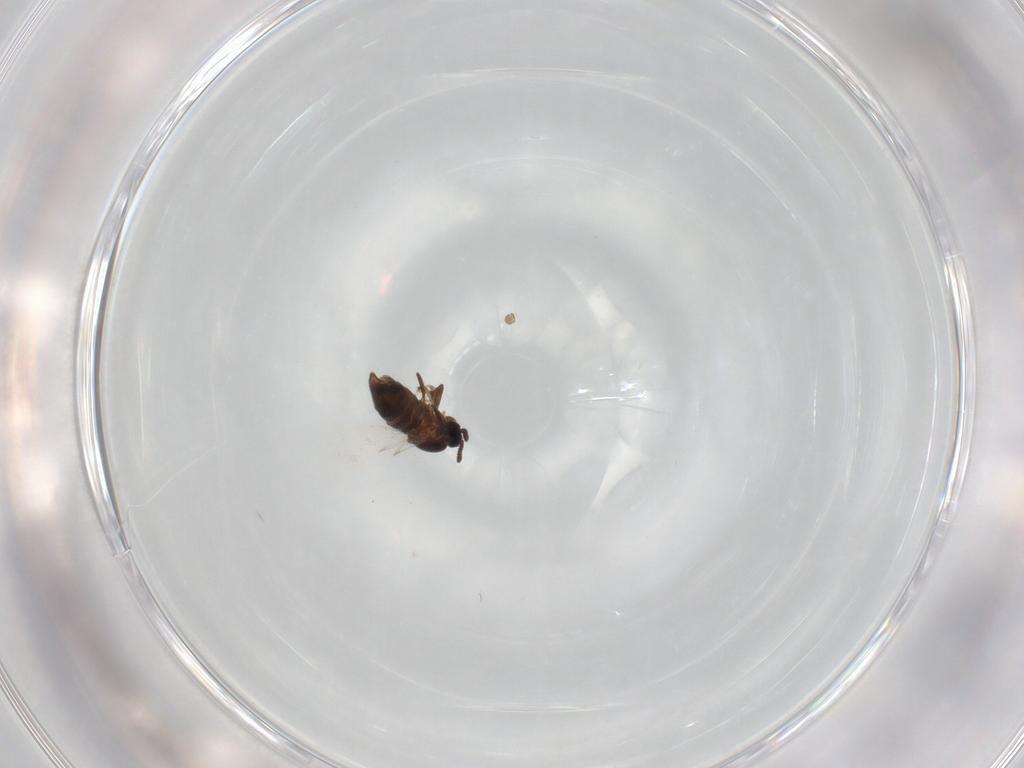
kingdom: Animalia
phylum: Arthropoda
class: Insecta
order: Diptera
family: Scatopsidae
